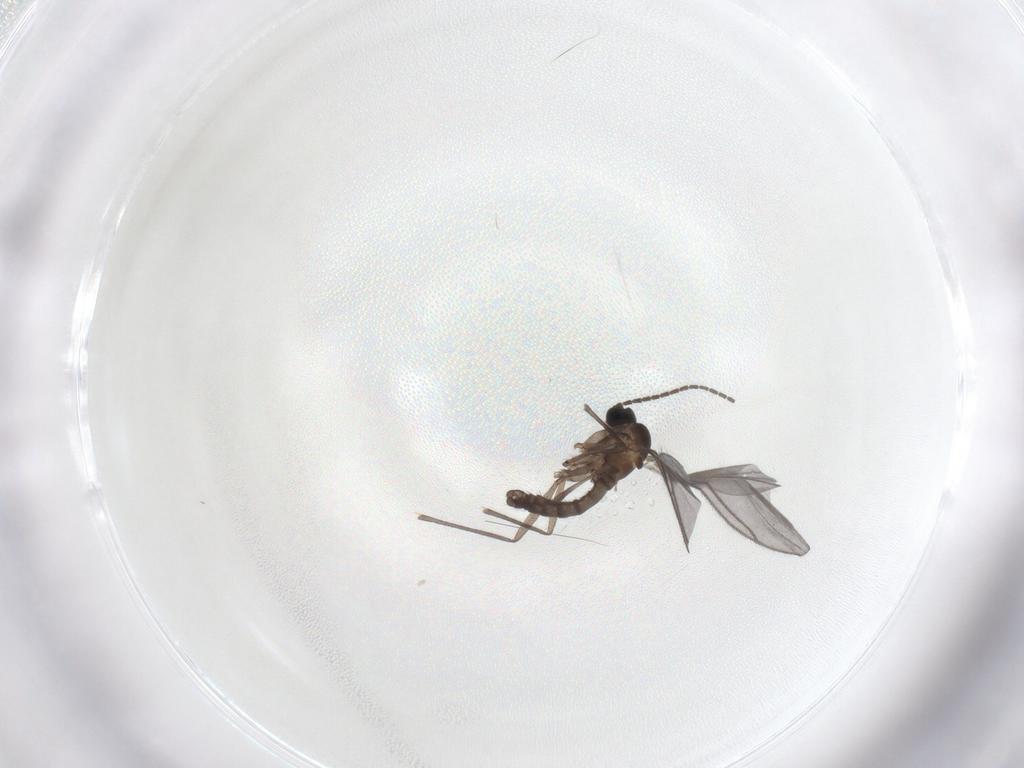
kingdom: Animalia
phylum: Arthropoda
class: Insecta
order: Diptera
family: Sciaridae
